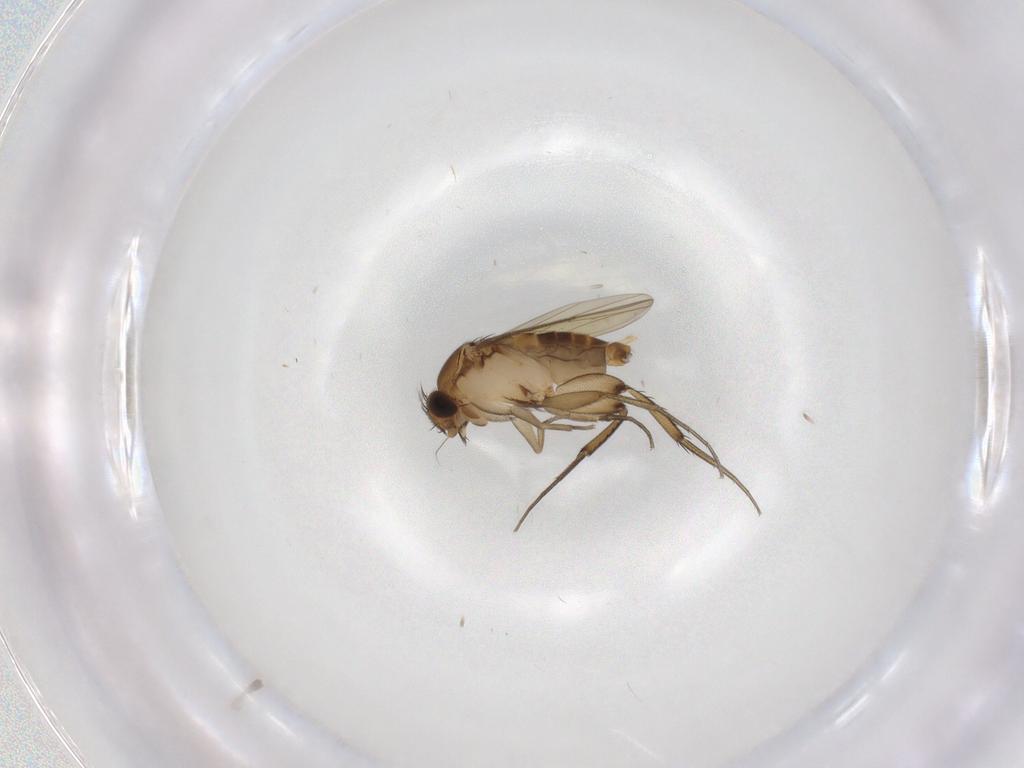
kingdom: Animalia
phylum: Arthropoda
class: Insecta
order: Diptera
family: Phoridae
